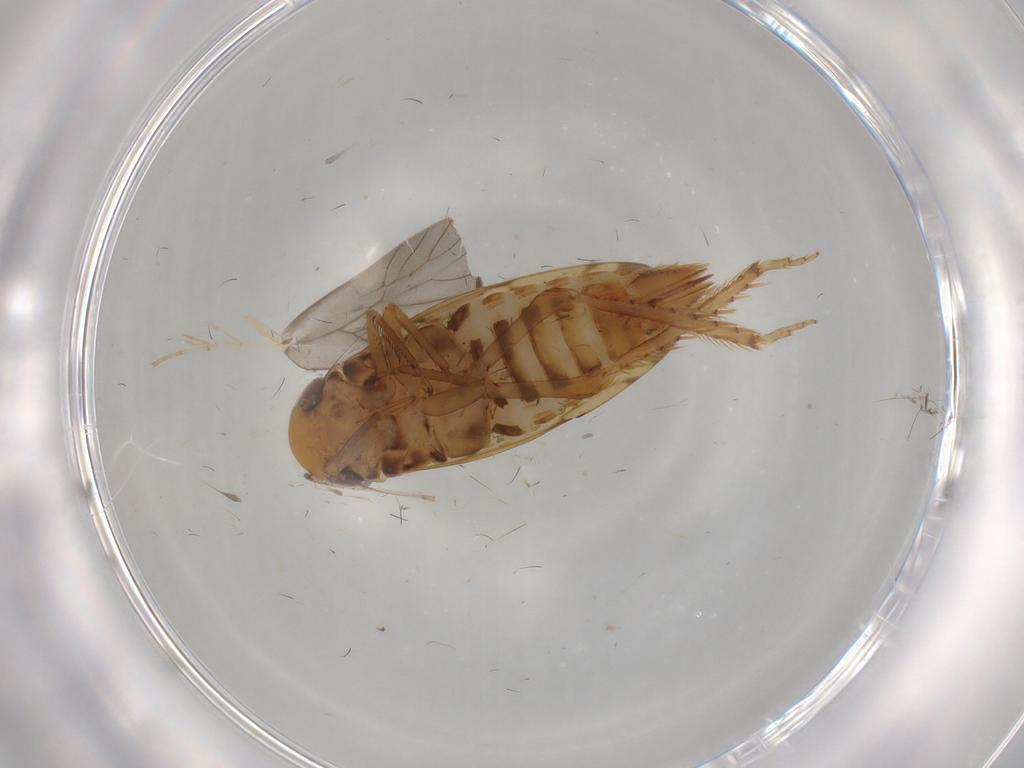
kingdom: Animalia
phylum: Arthropoda
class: Insecta
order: Hemiptera
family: Cicadellidae
